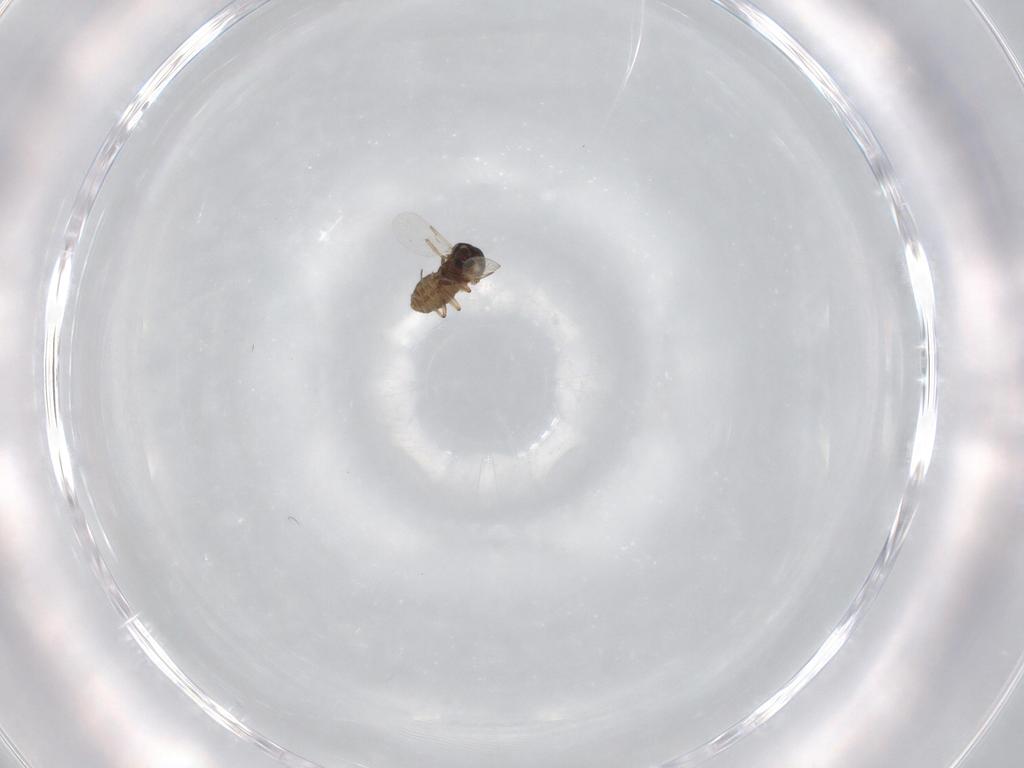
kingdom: Animalia
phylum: Arthropoda
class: Insecta
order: Diptera
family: Ceratopogonidae
